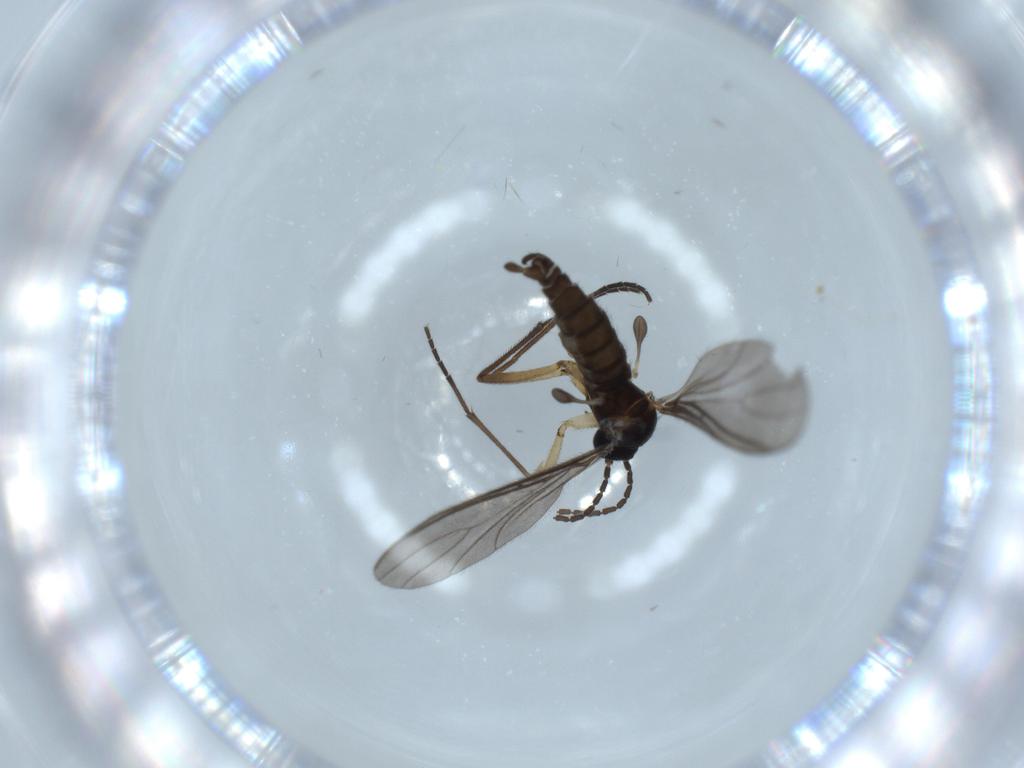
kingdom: Animalia
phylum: Arthropoda
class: Insecta
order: Diptera
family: Sciaridae
